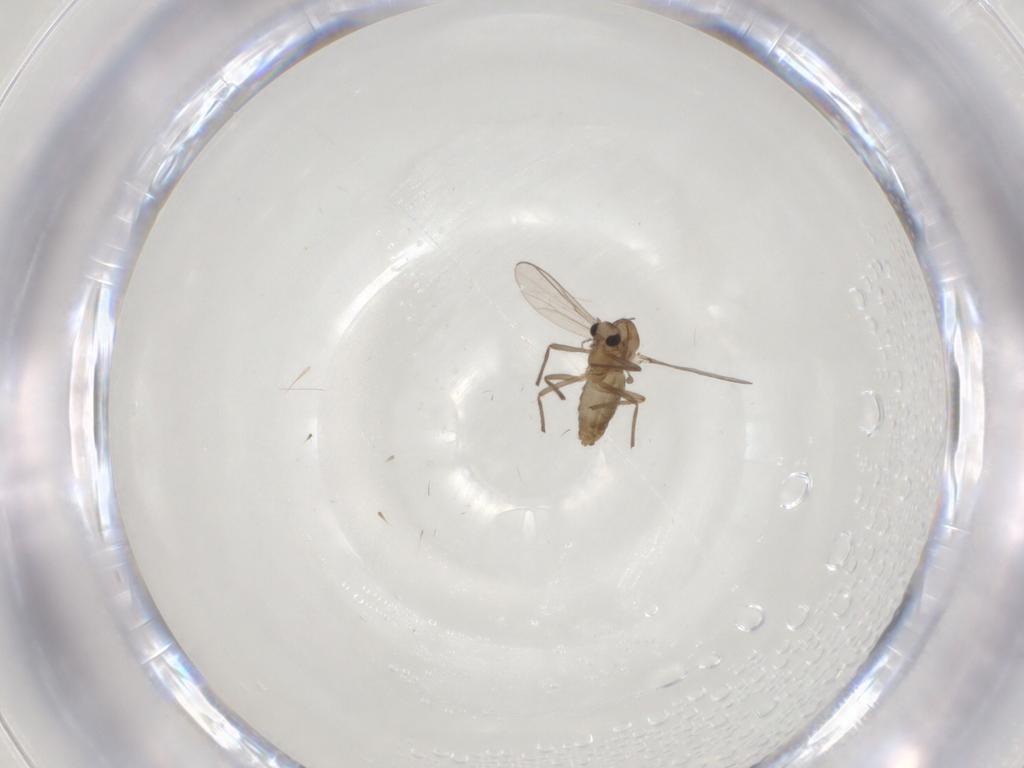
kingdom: Animalia
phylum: Arthropoda
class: Insecta
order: Diptera
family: Chironomidae
